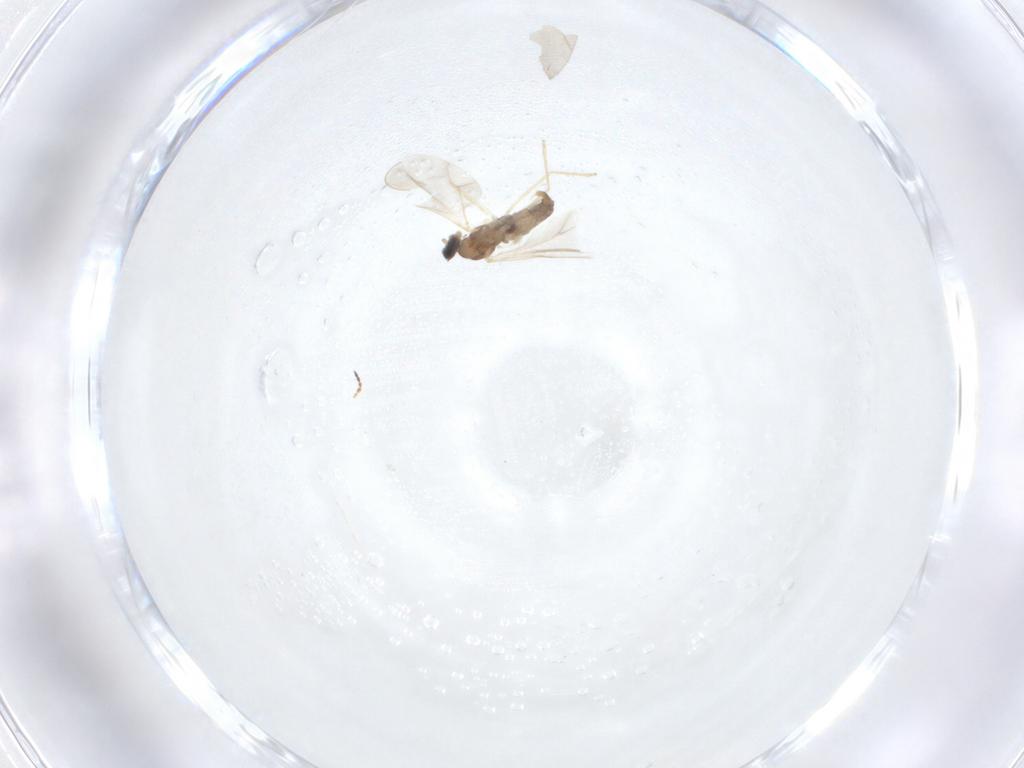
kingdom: Animalia
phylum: Arthropoda
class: Insecta
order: Diptera
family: Cecidomyiidae
